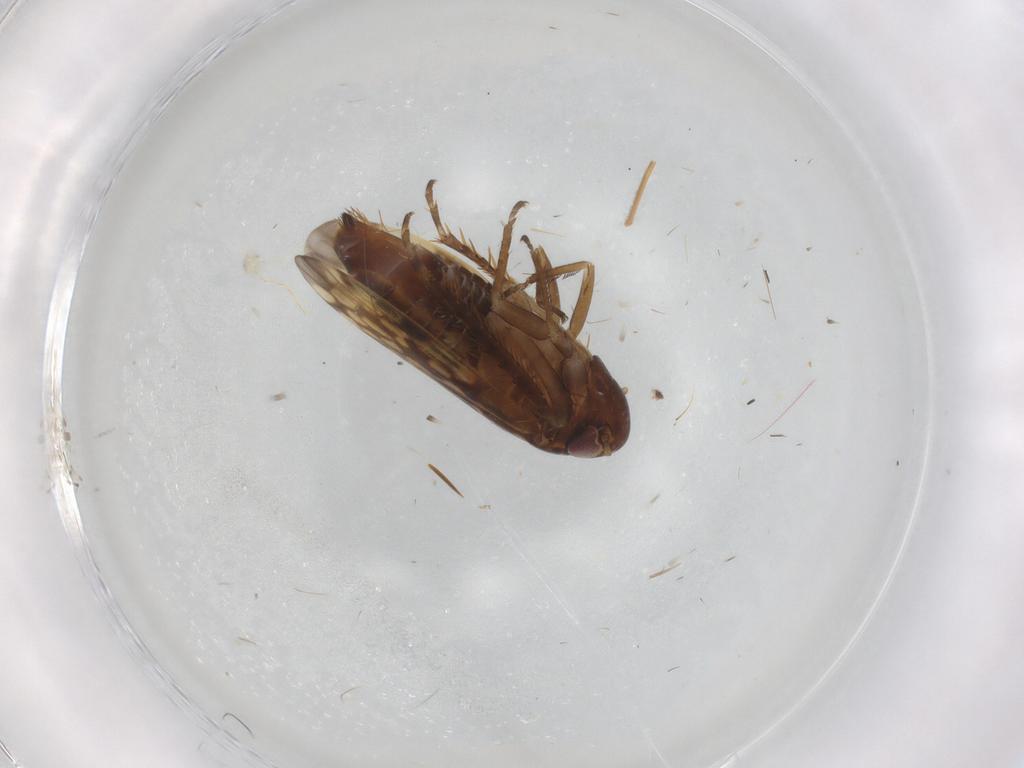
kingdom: Animalia
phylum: Arthropoda
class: Insecta
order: Hemiptera
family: Cicadellidae
